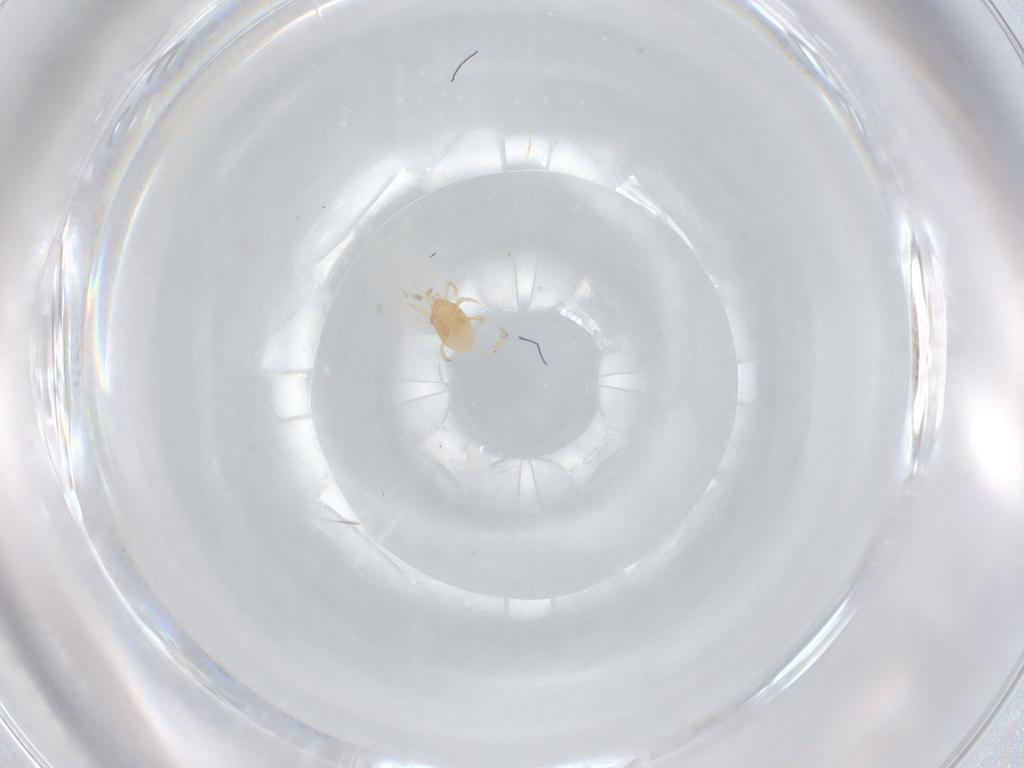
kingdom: Animalia
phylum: Arthropoda
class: Arachnida
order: Mesostigmata
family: Melicharidae
